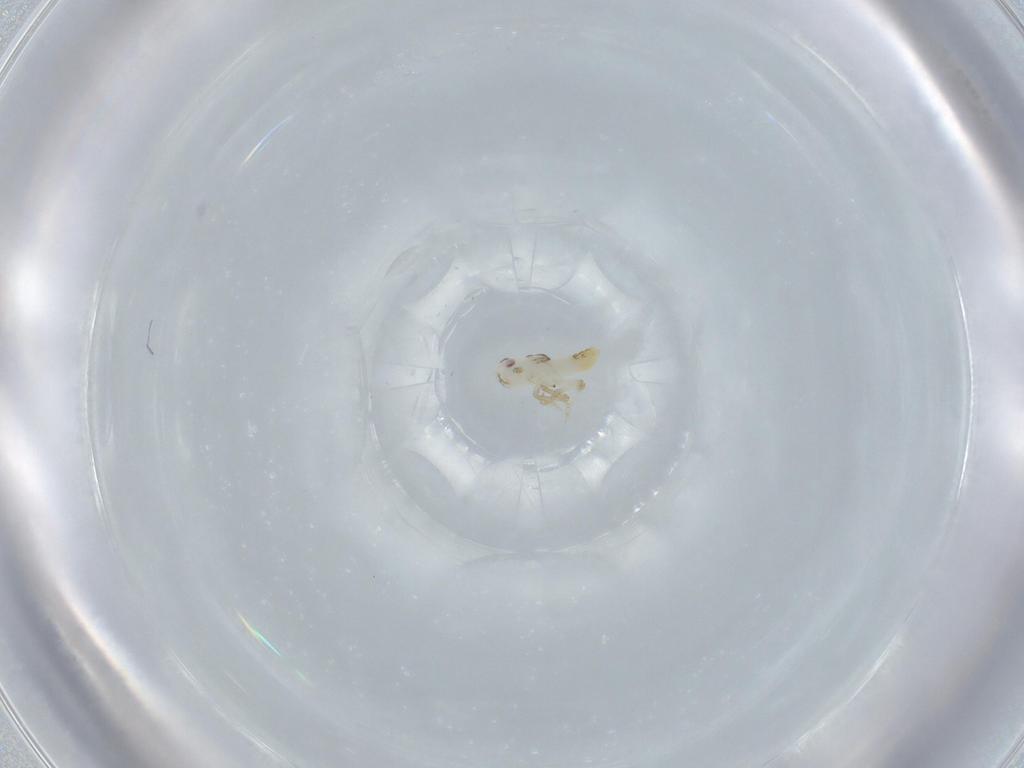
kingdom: Animalia
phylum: Arthropoda
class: Insecta
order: Hemiptera
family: Delphacidae
